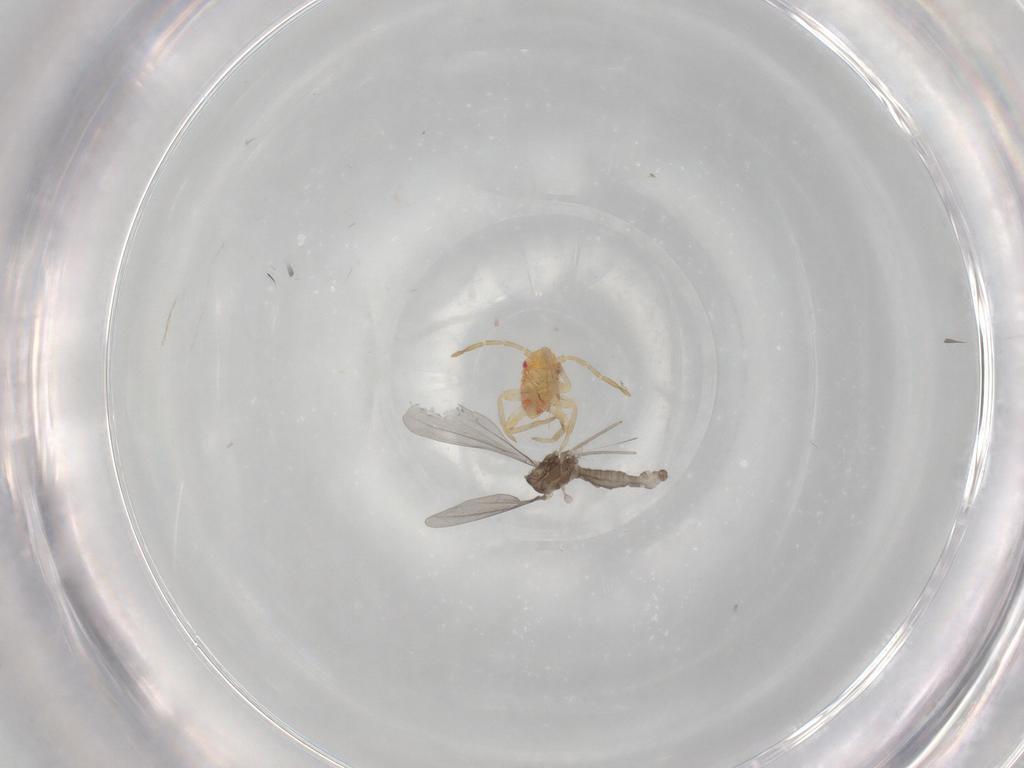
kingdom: Animalia
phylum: Arthropoda
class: Insecta
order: Diptera
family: Cecidomyiidae
